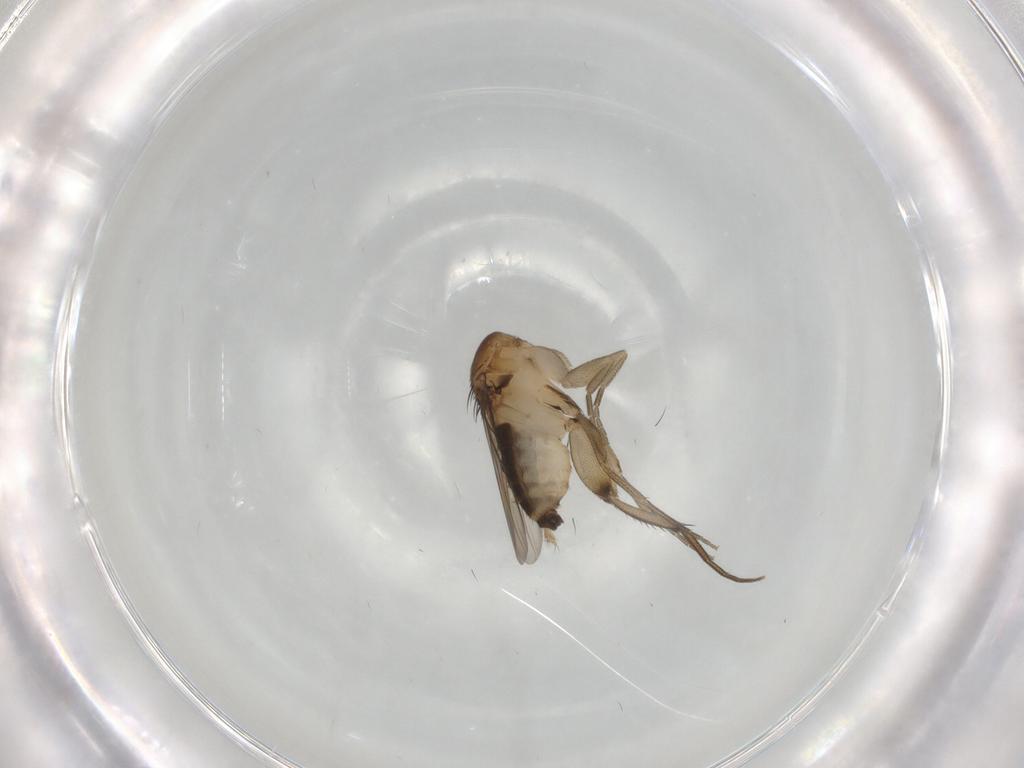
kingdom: Animalia
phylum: Arthropoda
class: Insecta
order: Diptera
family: Phoridae
